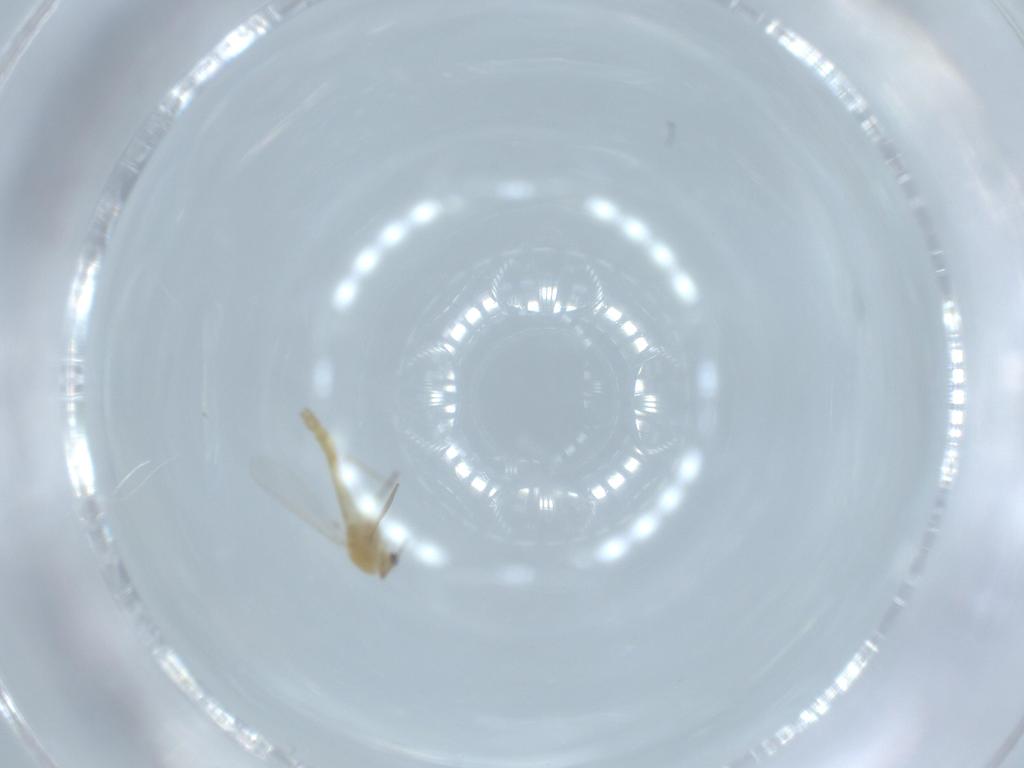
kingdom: Animalia
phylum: Arthropoda
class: Insecta
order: Diptera
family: Chironomidae
